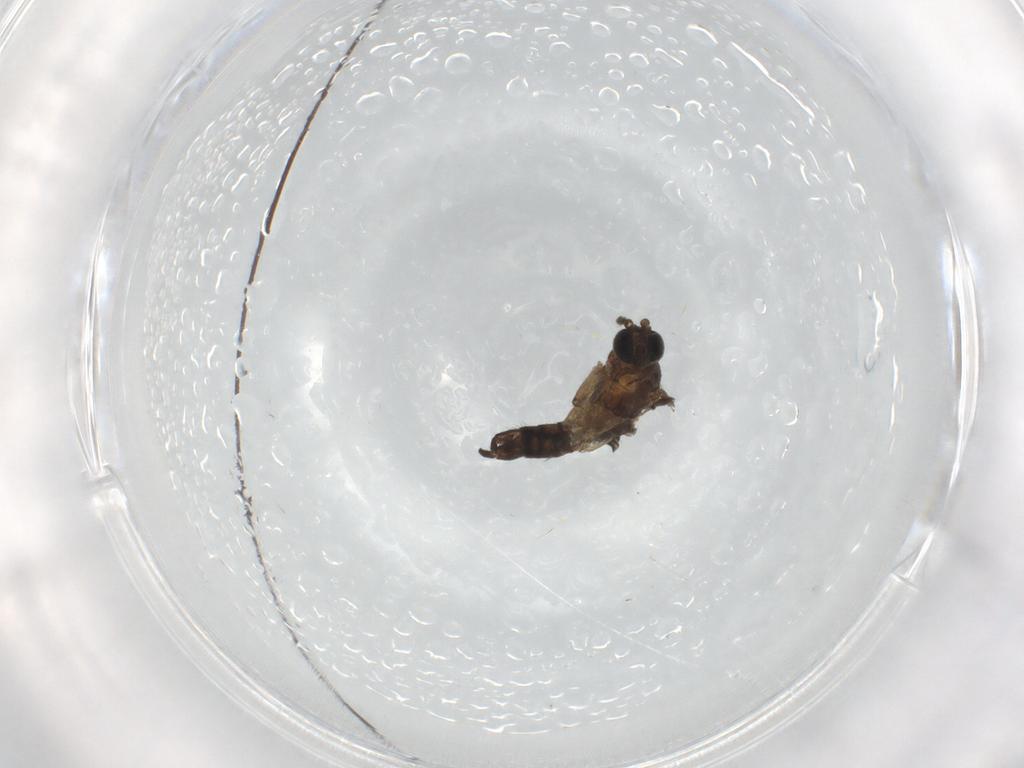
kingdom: Animalia
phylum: Arthropoda
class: Insecta
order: Diptera
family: Sciaridae
